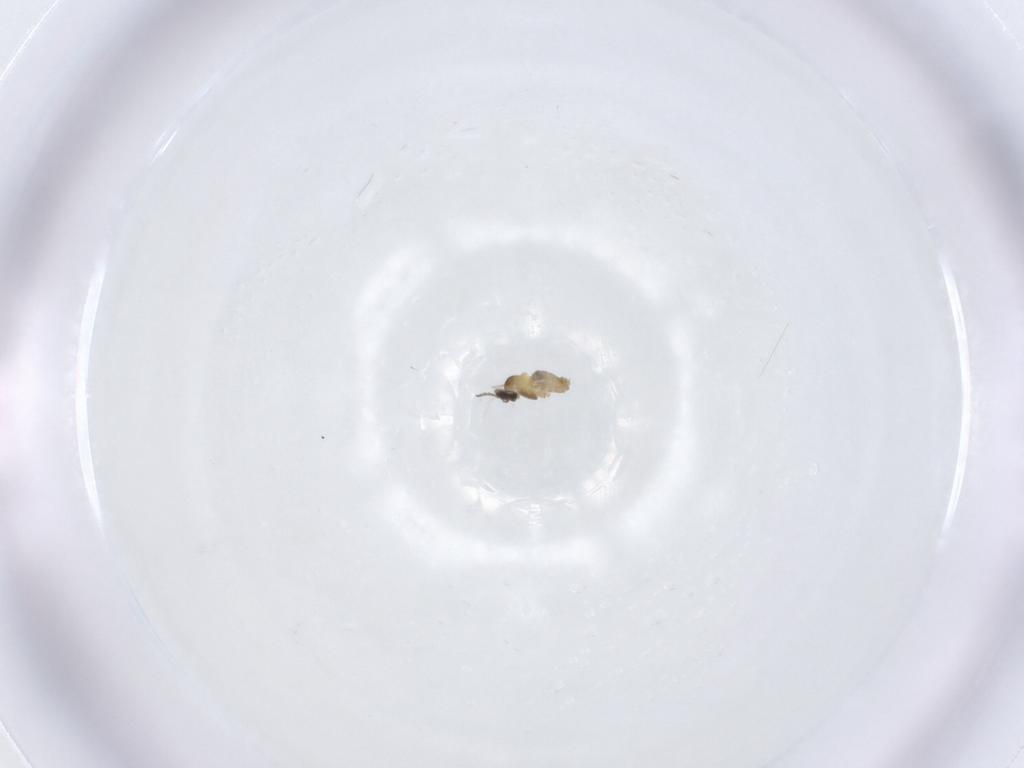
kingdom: Animalia
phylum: Arthropoda
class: Insecta
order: Diptera
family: Cecidomyiidae
